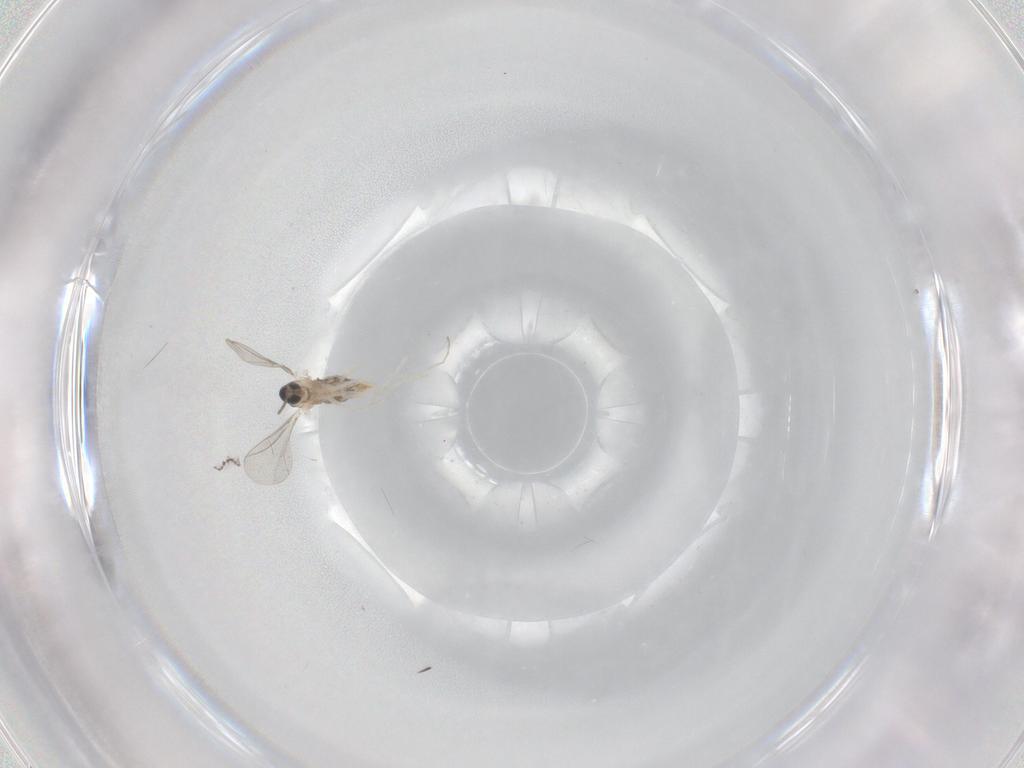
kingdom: Animalia
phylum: Arthropoda
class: Insecta
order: Diptera
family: Cecidomyiidae
